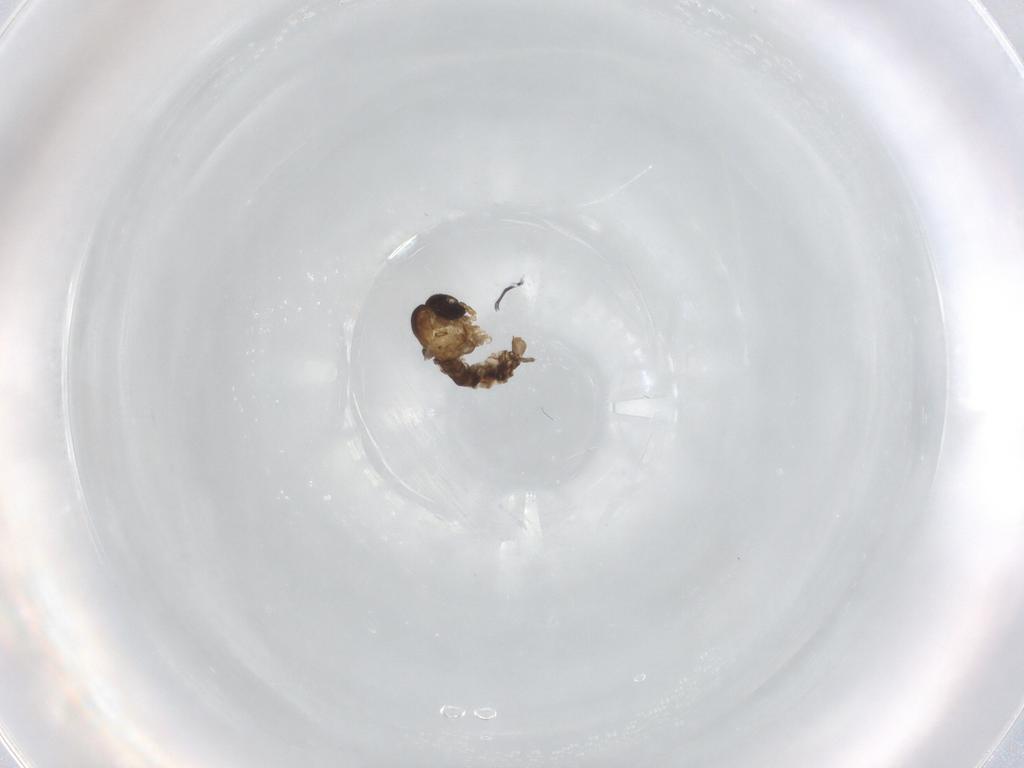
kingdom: Animalia
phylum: Arthropoda
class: Insecta
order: Diptera
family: Psychodidae
